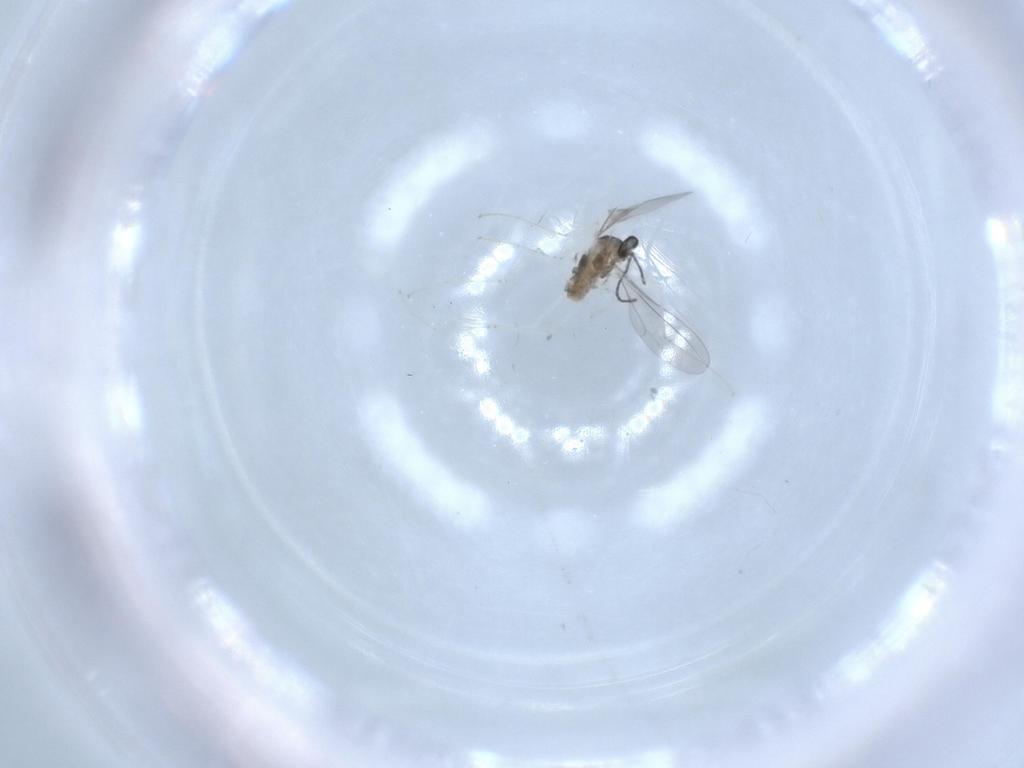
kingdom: Animalia
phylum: Arthropoda
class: Insecta
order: Diptera
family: Cecidomyiidae
